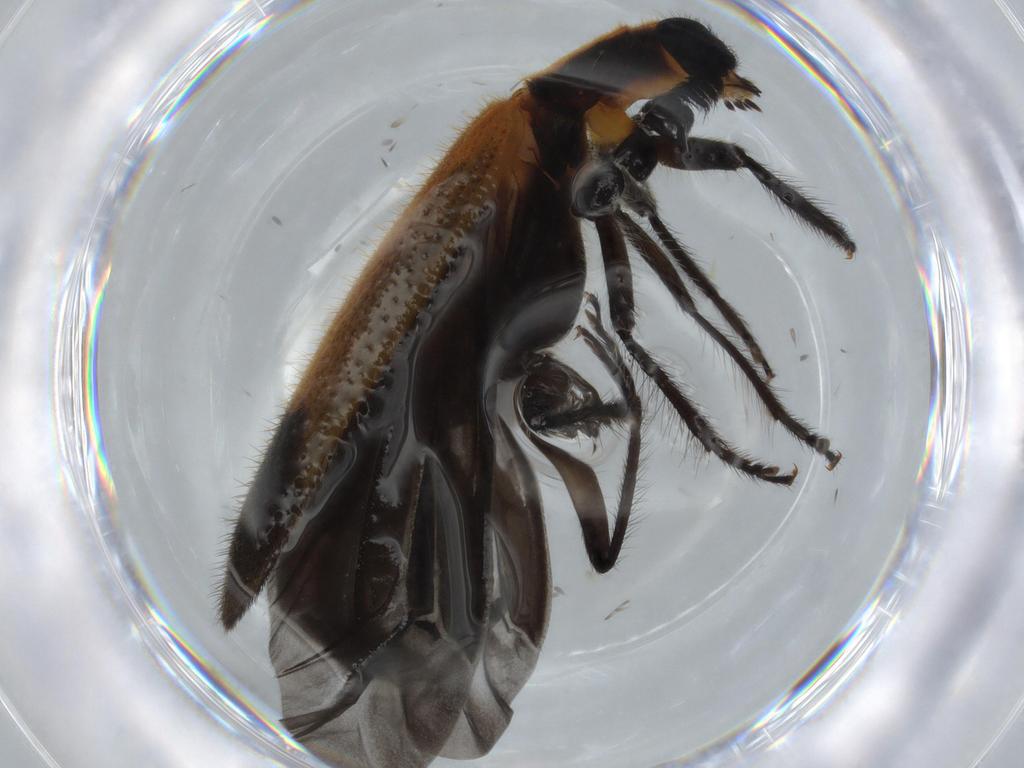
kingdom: Animalia
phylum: Arthropoda
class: Insecta
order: Coleoptera
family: Cleridae
